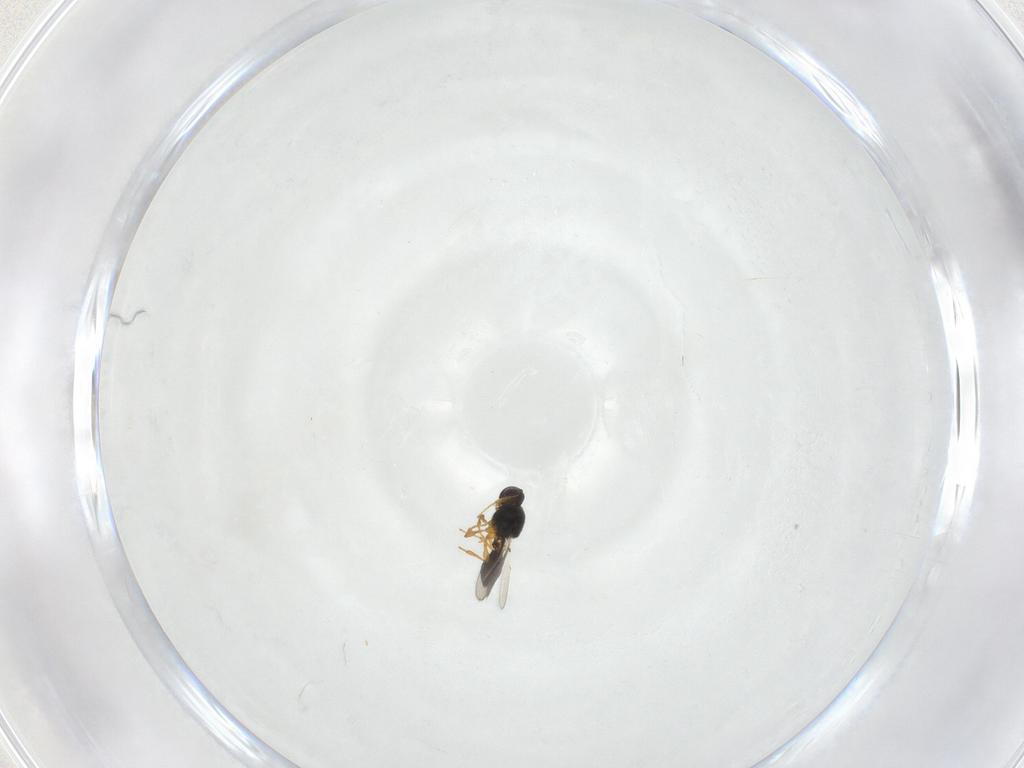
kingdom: Animalia
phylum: Arthropoda
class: Insecta
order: Hymenoptera
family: Platygastridae
